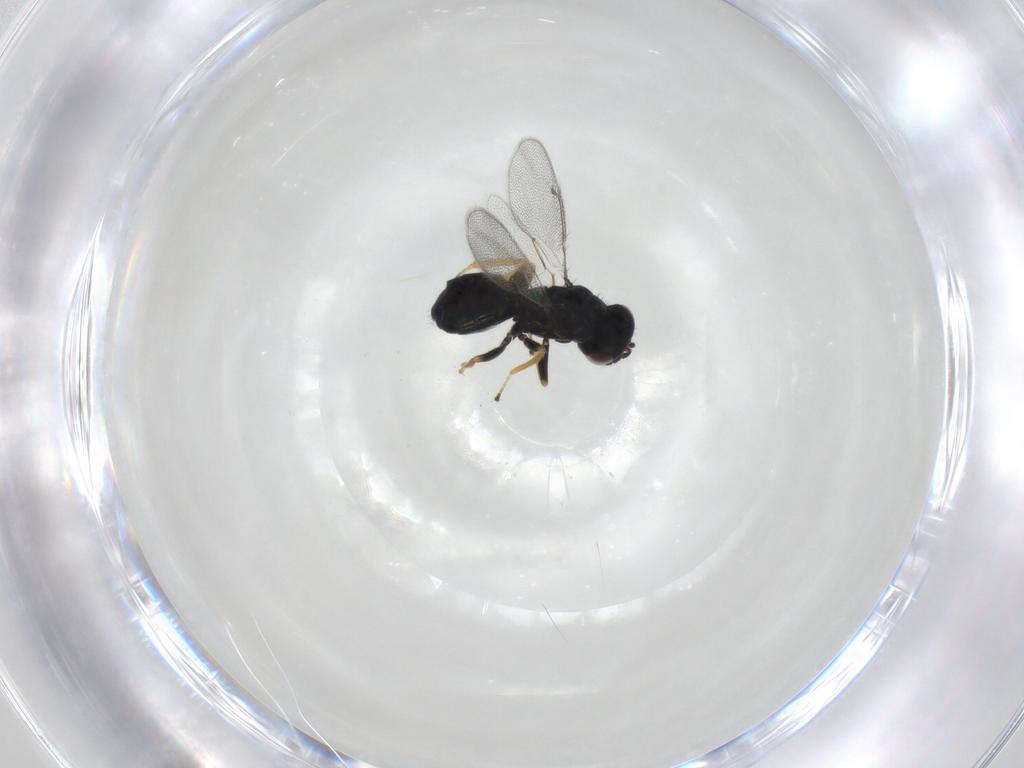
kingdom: Animalia
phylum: Arthropoda
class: Insecta
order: Hymenoptera
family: Eulophidae
